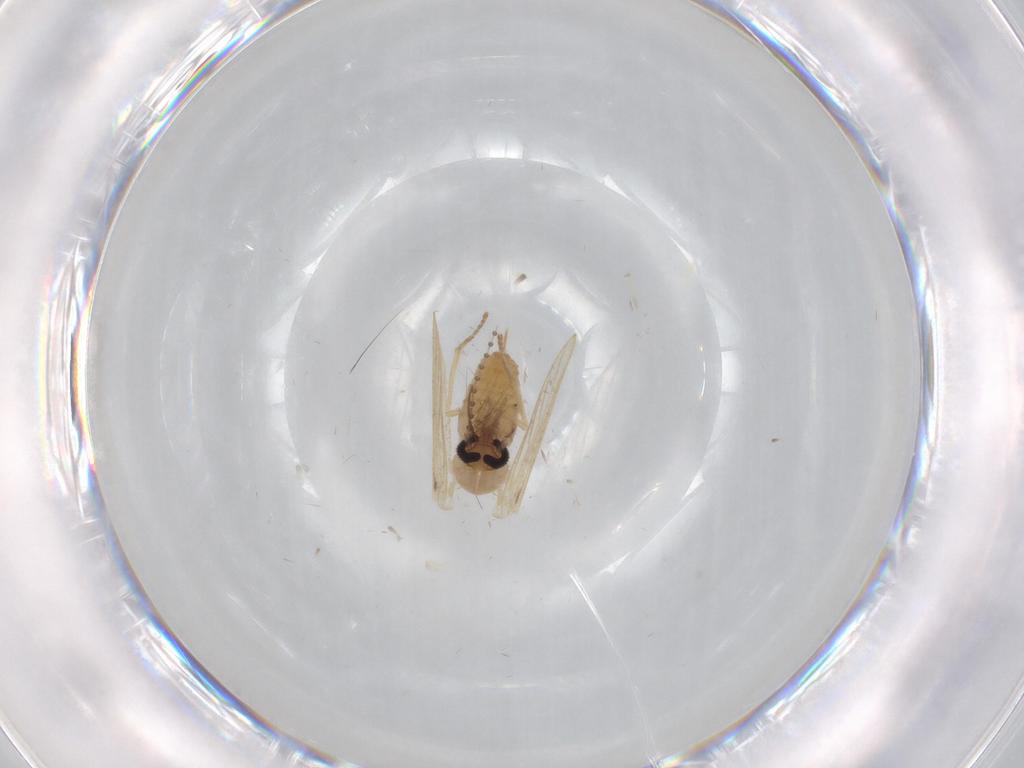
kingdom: Animalia
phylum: Arthropoda
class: Insecta
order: Diptera
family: Psychodidae
